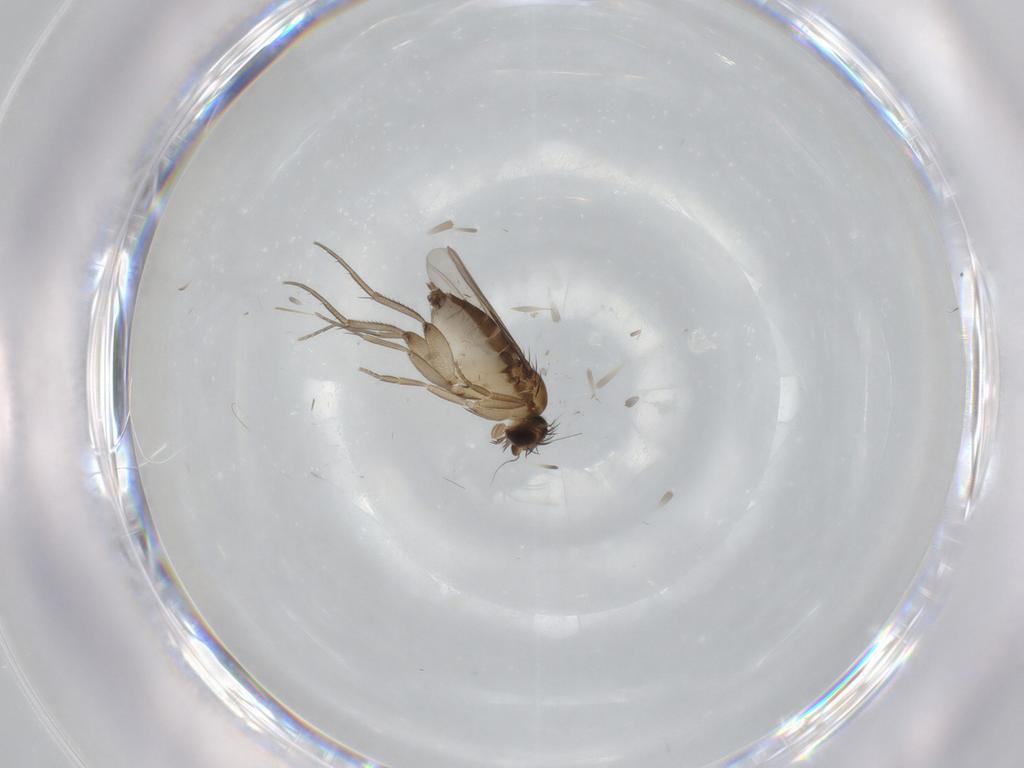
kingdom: Animalia
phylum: Arthropoda
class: Insecta
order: Diptera
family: Phoridae
